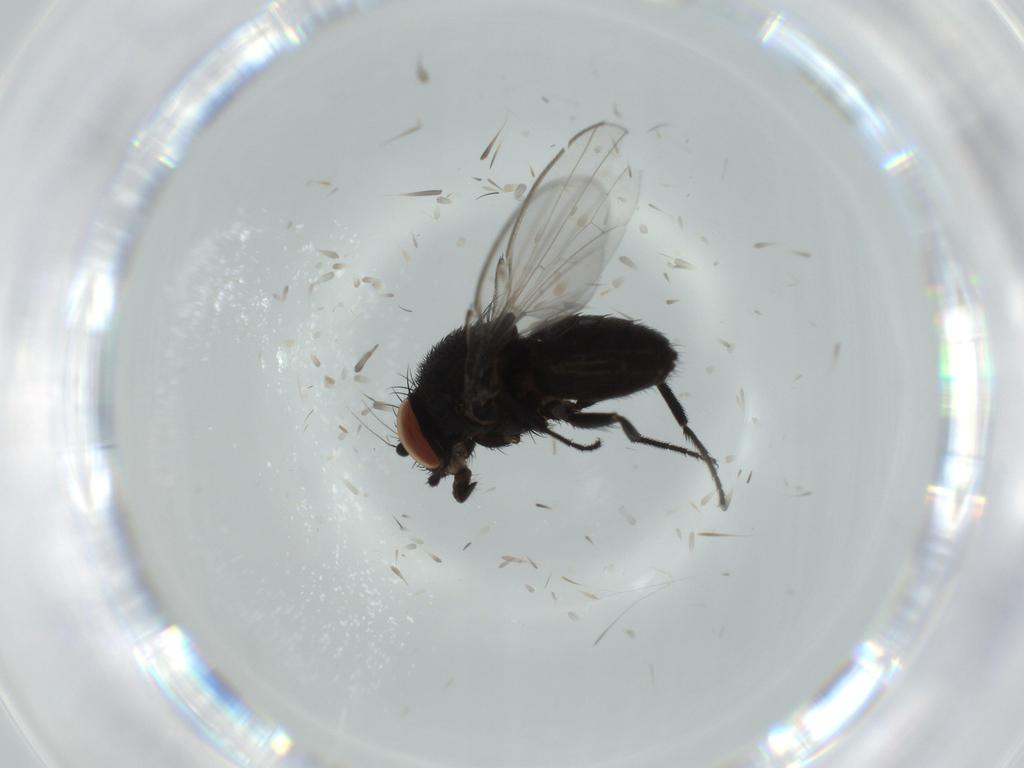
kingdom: Animalia
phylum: Arthropoda
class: Insecta
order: Diptera
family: Milichiidae
